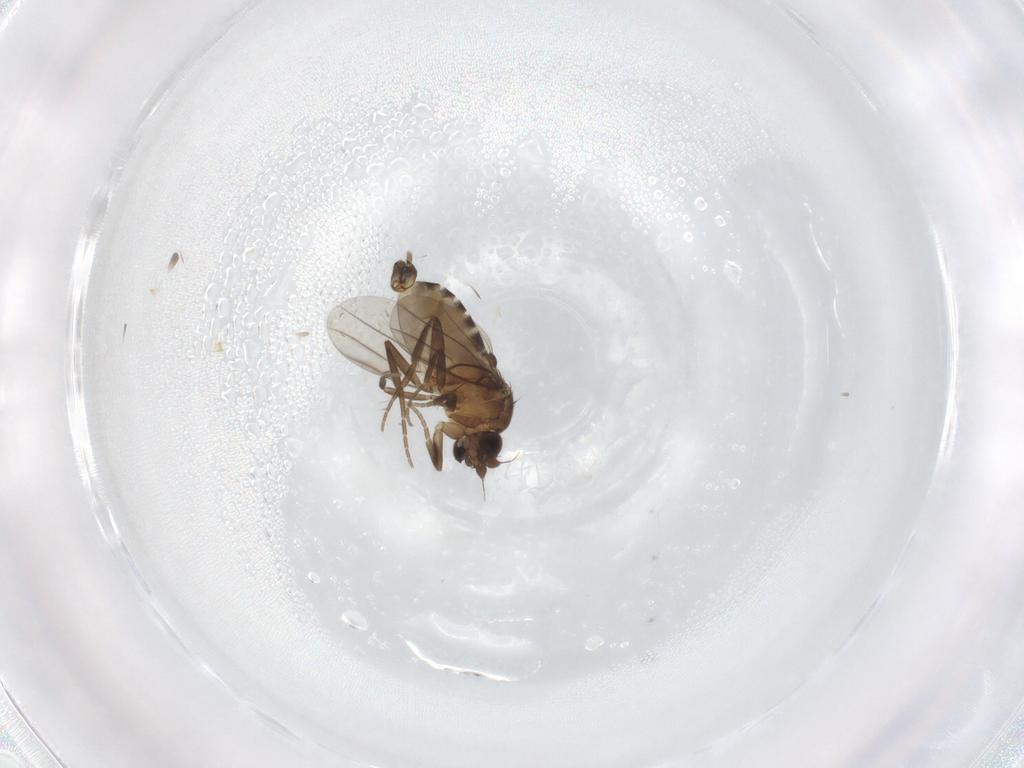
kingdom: Animalia
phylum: Arthropoda
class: Insecta
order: Diptera
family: Phoridae
